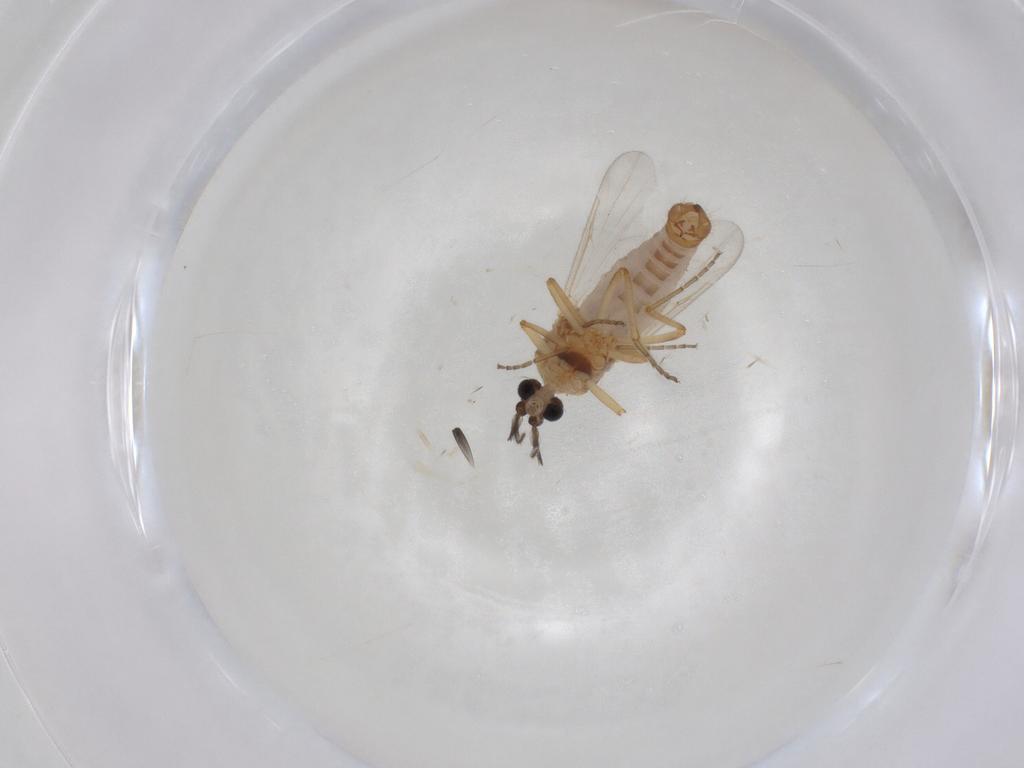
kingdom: Animalia
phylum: Arthropoda
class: Insecta
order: Diptera
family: Ceratopogonidae
